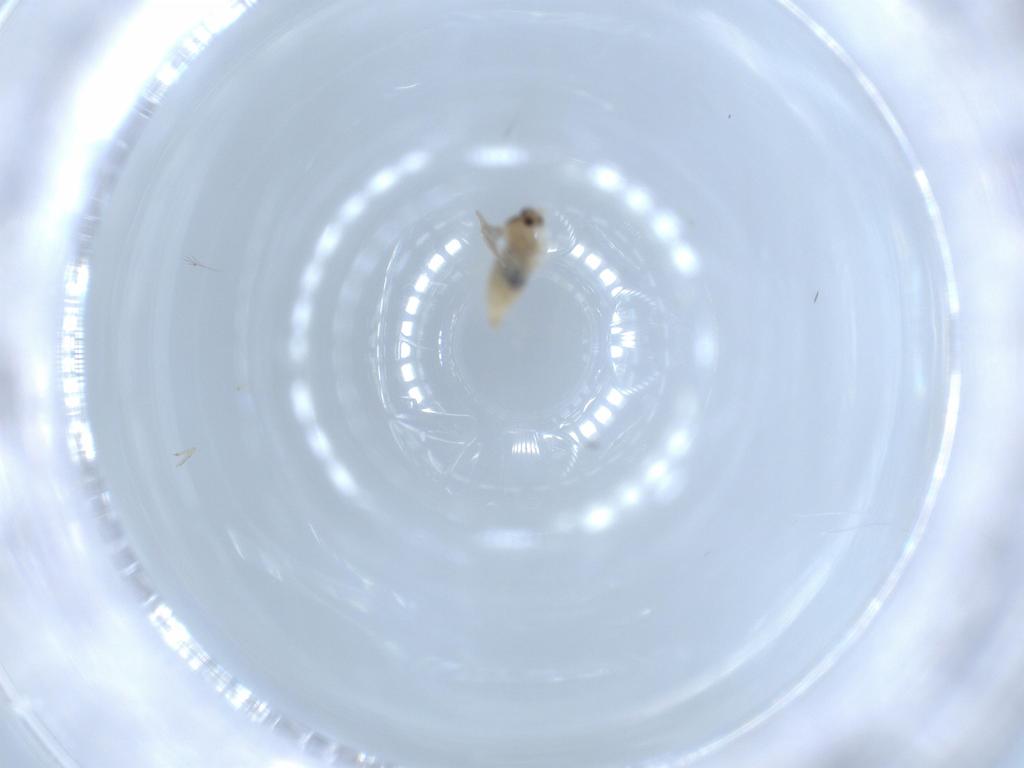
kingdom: Animalia
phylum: Arthropoda
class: Insecta
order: Diptera
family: Cecidomyiidae
